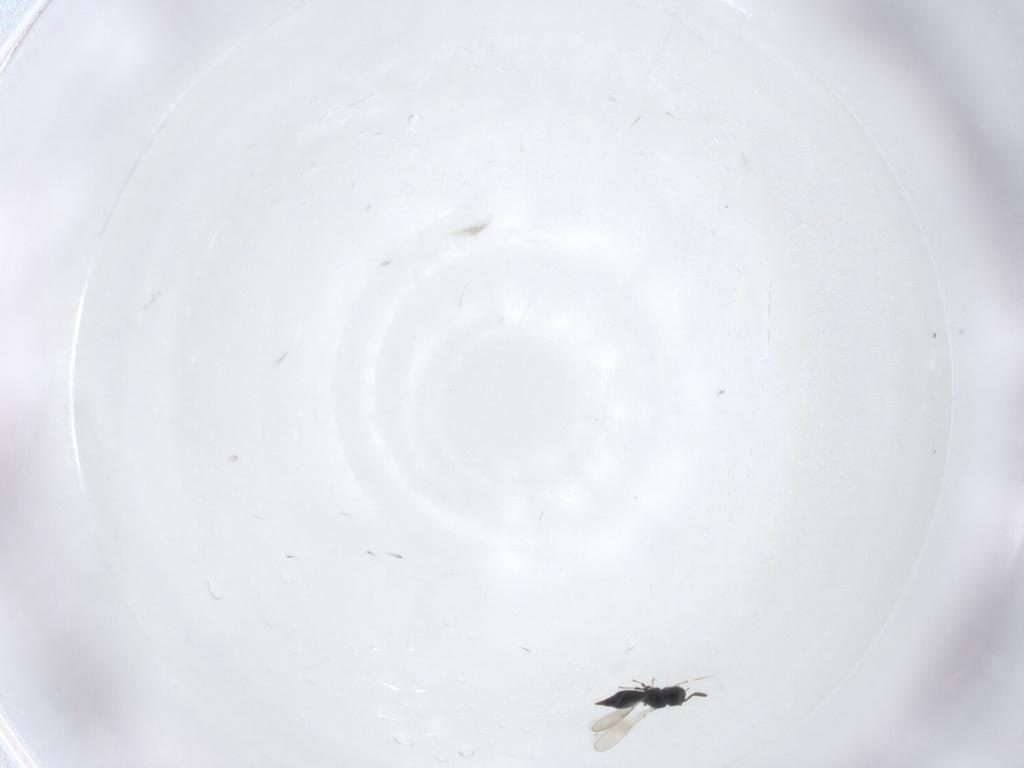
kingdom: Animalia
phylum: Arthropoda
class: Insecta
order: Hymenoptera
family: Scelionidae
